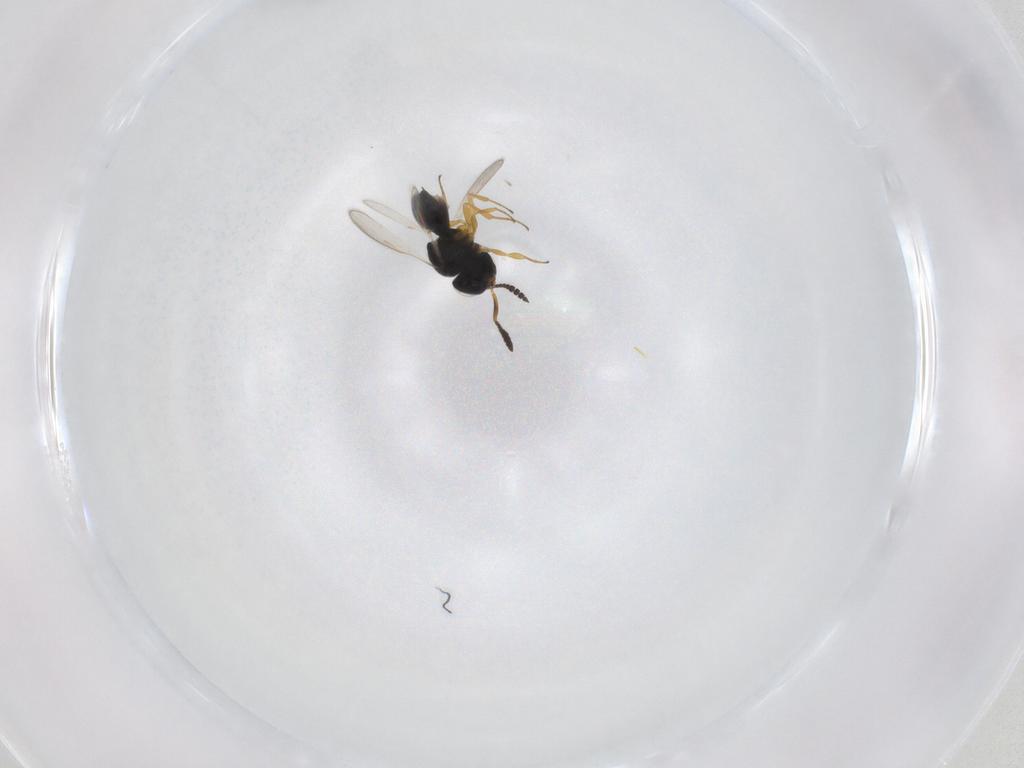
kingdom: Animalia
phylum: Arthropoda
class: Insecta
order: Hymenoptera
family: Scelionidae
